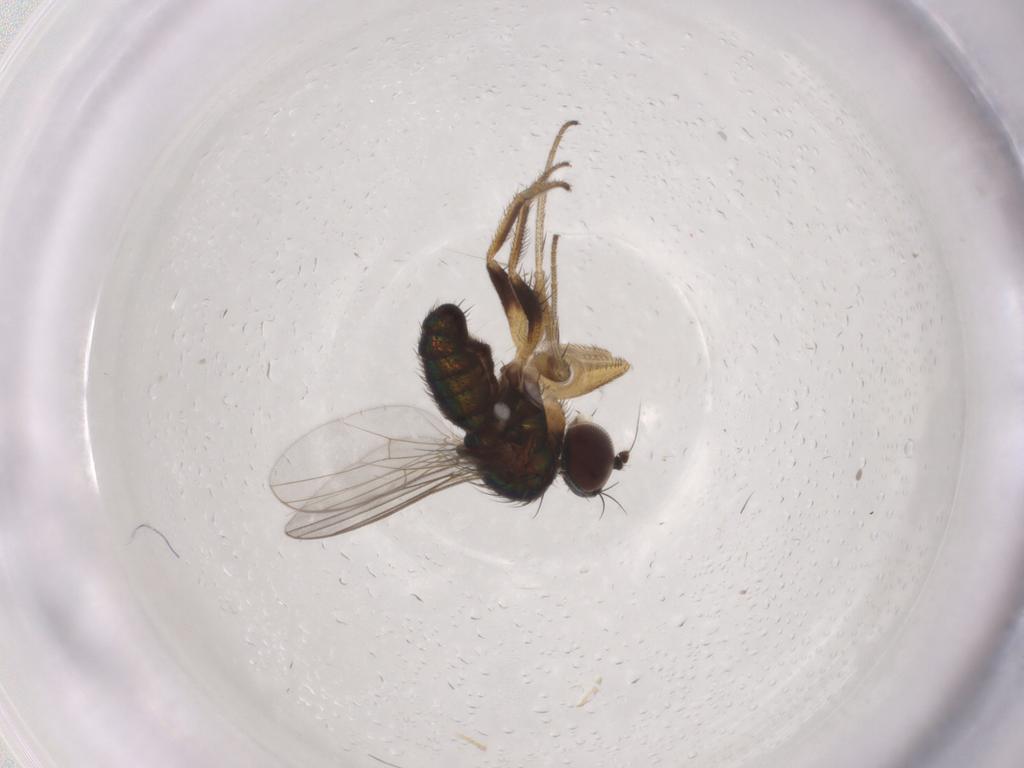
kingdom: Animalia
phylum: Arthropoda
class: Insecta
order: Diptera
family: Dolichopodidae
